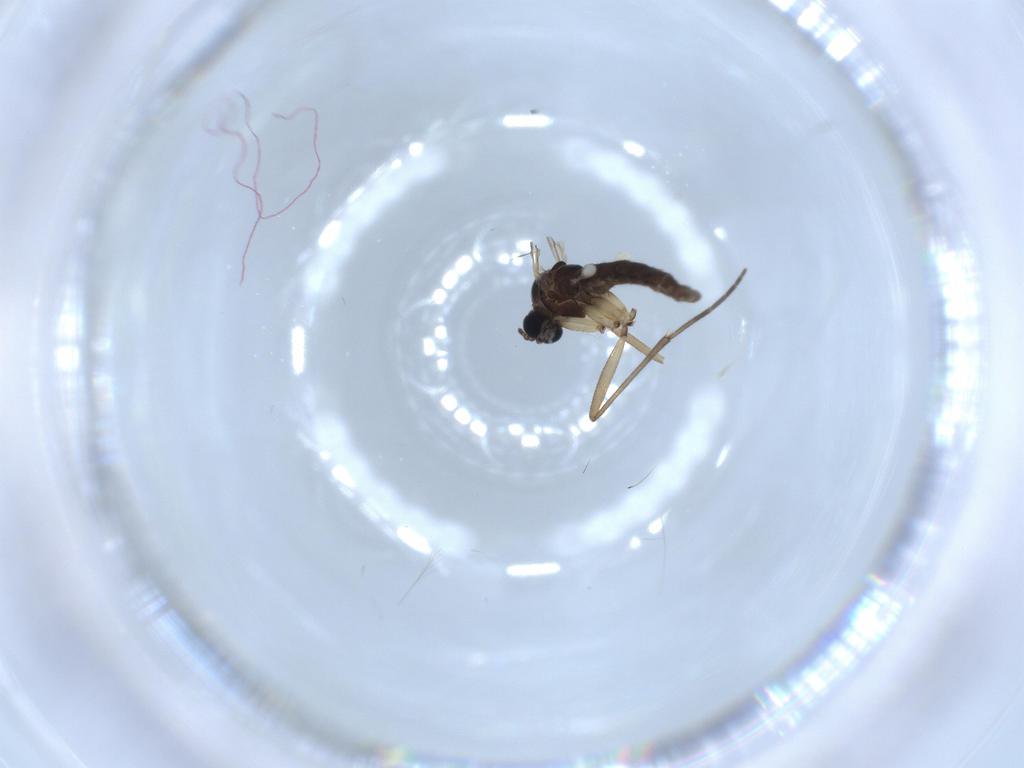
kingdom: Animalia
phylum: Arthropoda
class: Insecta
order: Diptera
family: Sciaridae
